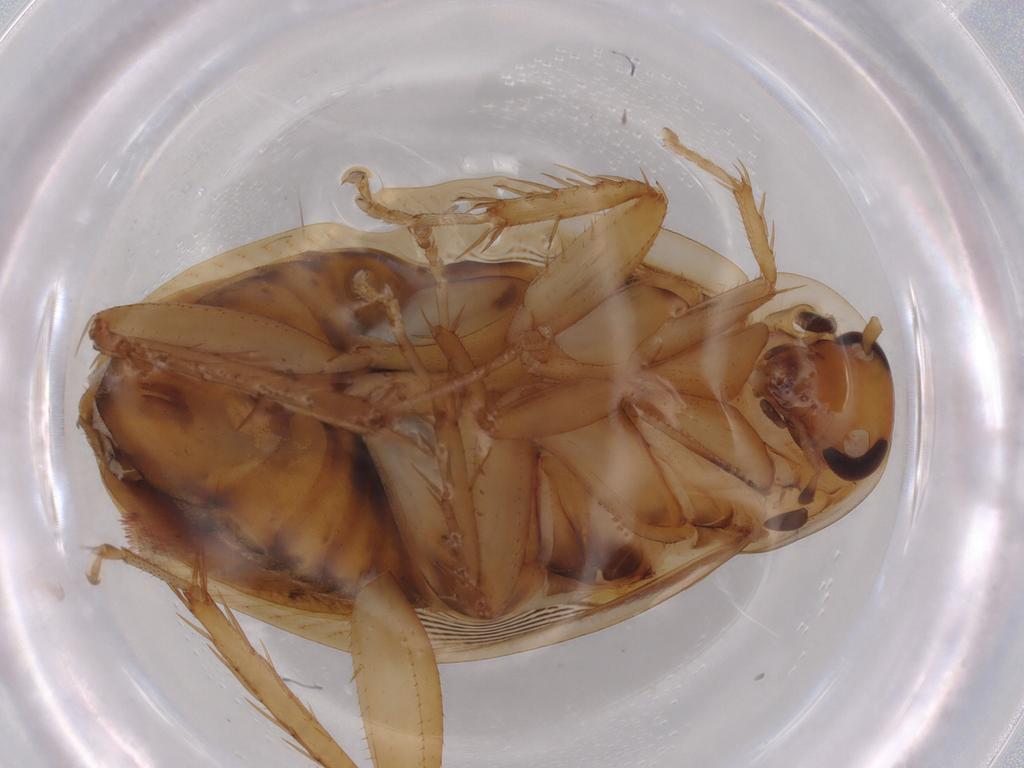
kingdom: Animalia
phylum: Arthropoda
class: Insecta
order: Blattodea
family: Ectobiidae
